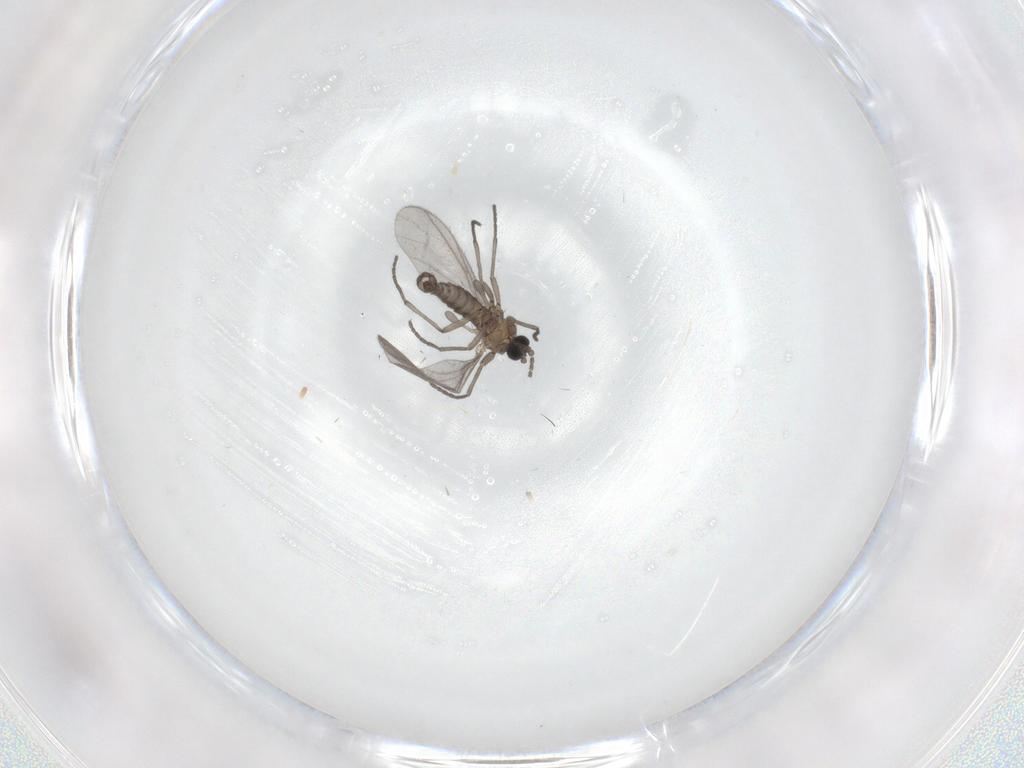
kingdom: Animalia
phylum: Arthropoda
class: Insecta
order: Diptera
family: Sciaridae
